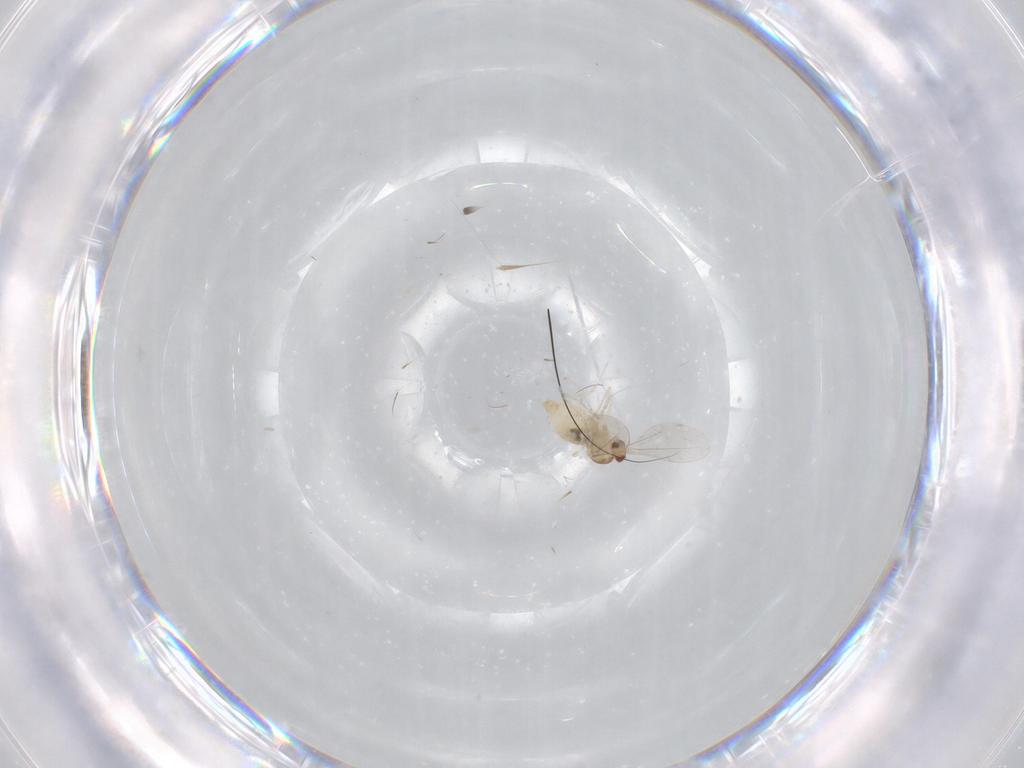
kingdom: Animalia
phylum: Arthropoda
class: Insecta
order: Diptera
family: Cecidomyiidae
